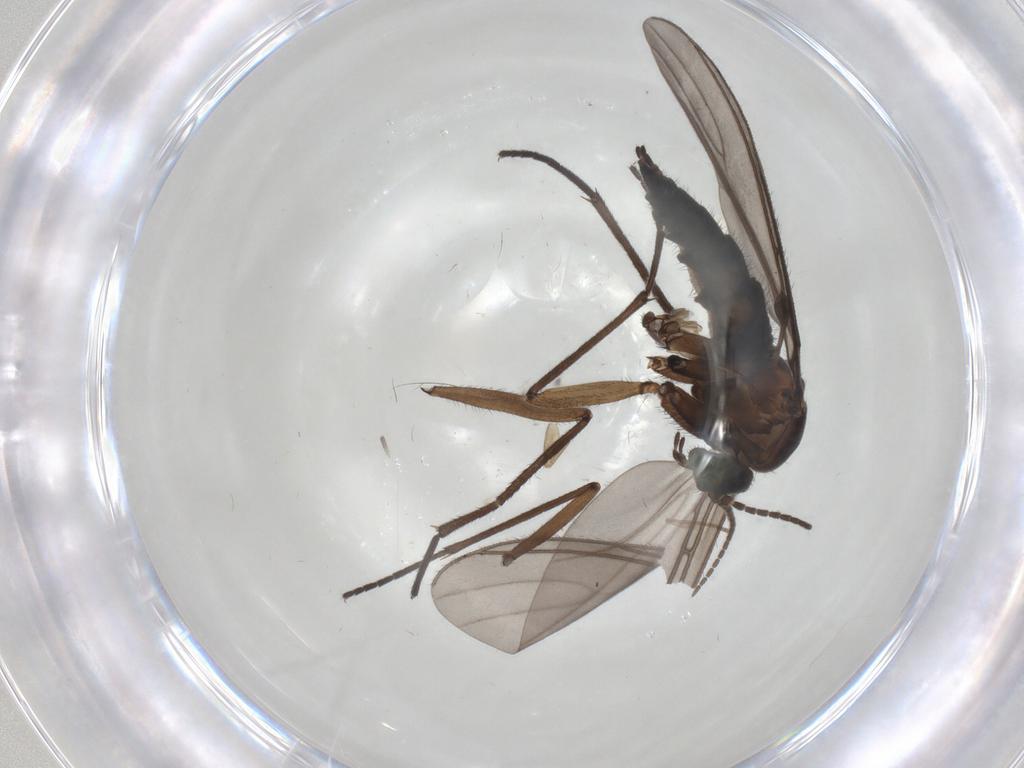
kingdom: Animalia
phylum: Arthropoda
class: Insecta
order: Diptera
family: Sciaridae
